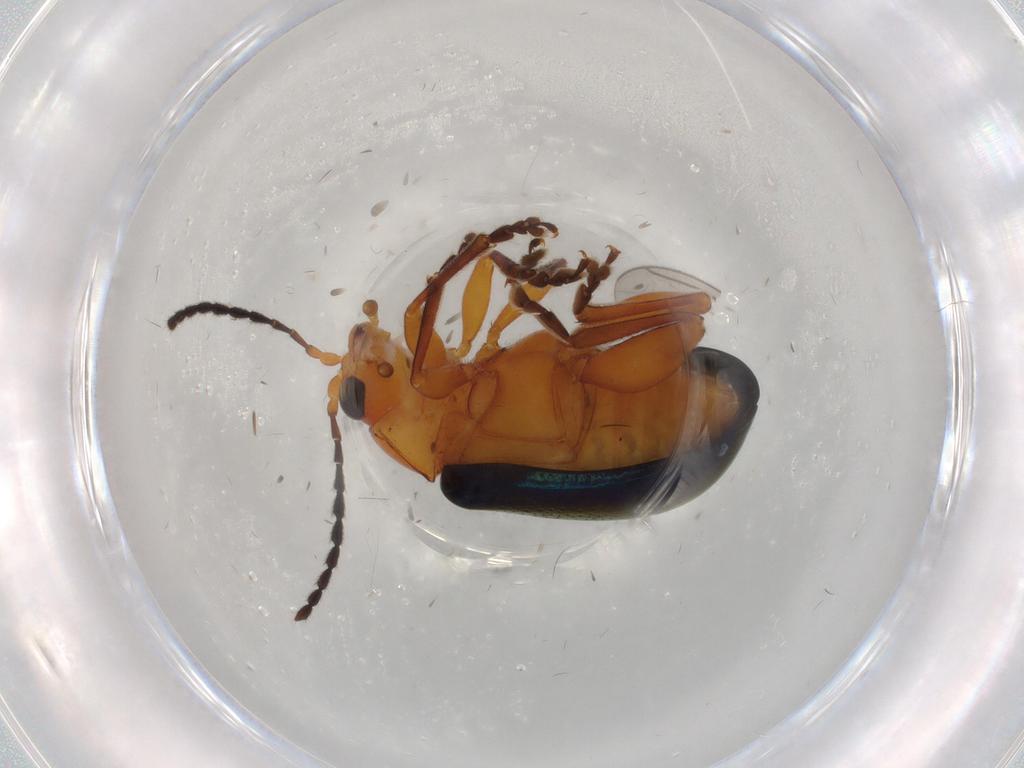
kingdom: Animalia
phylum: Arthropoda
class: Insecta
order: Coleoptera
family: Chrysomelidae
